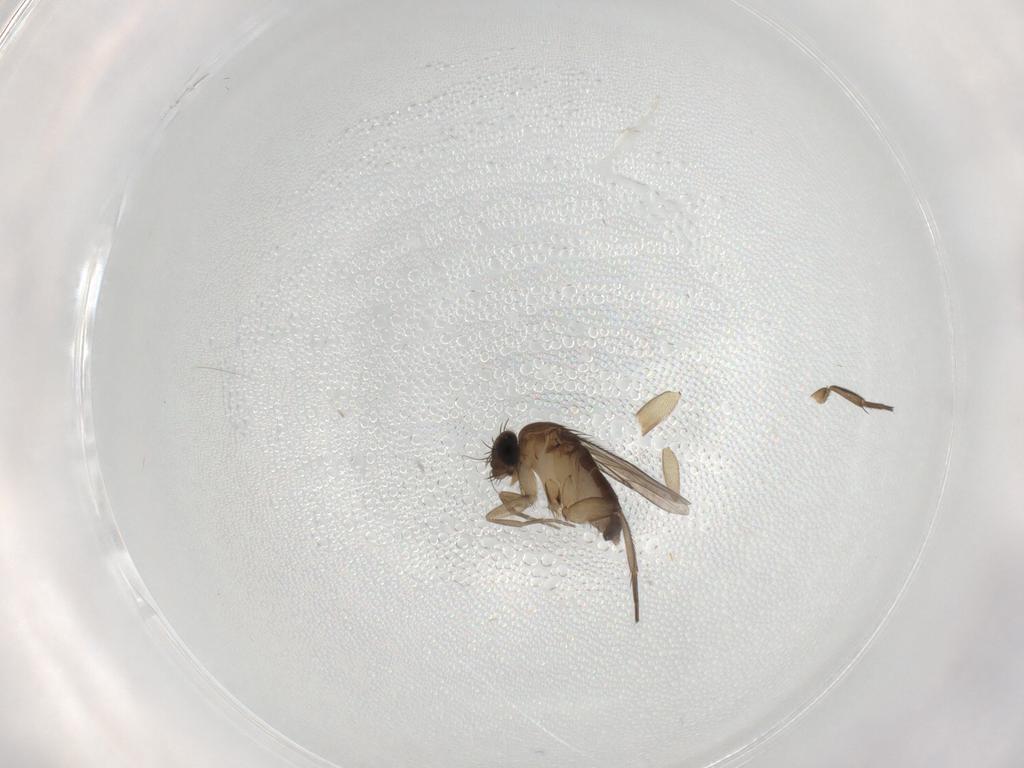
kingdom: Animalia
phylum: Arthropoda
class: Insecta
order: Diptera
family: Phoridae
